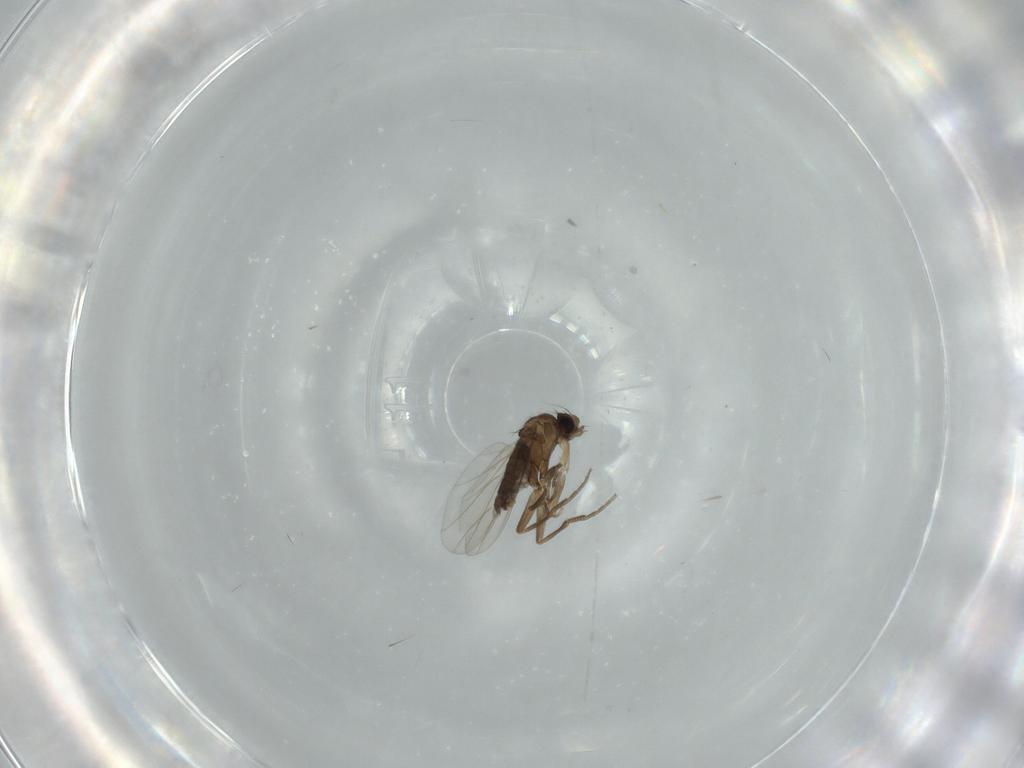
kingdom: Animalia
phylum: Arthropoda
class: Insecta
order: Diptera
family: Phoridae
